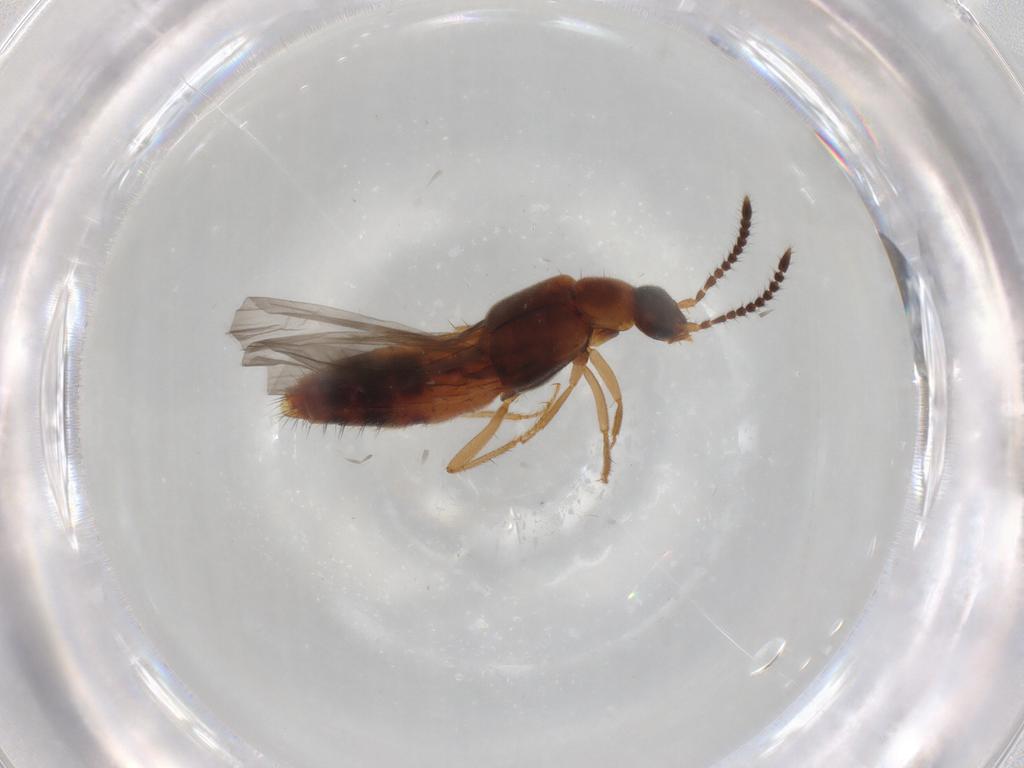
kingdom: Animalia
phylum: Arthropoda
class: Insecta
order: Coleoptera
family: Staphylinidae
